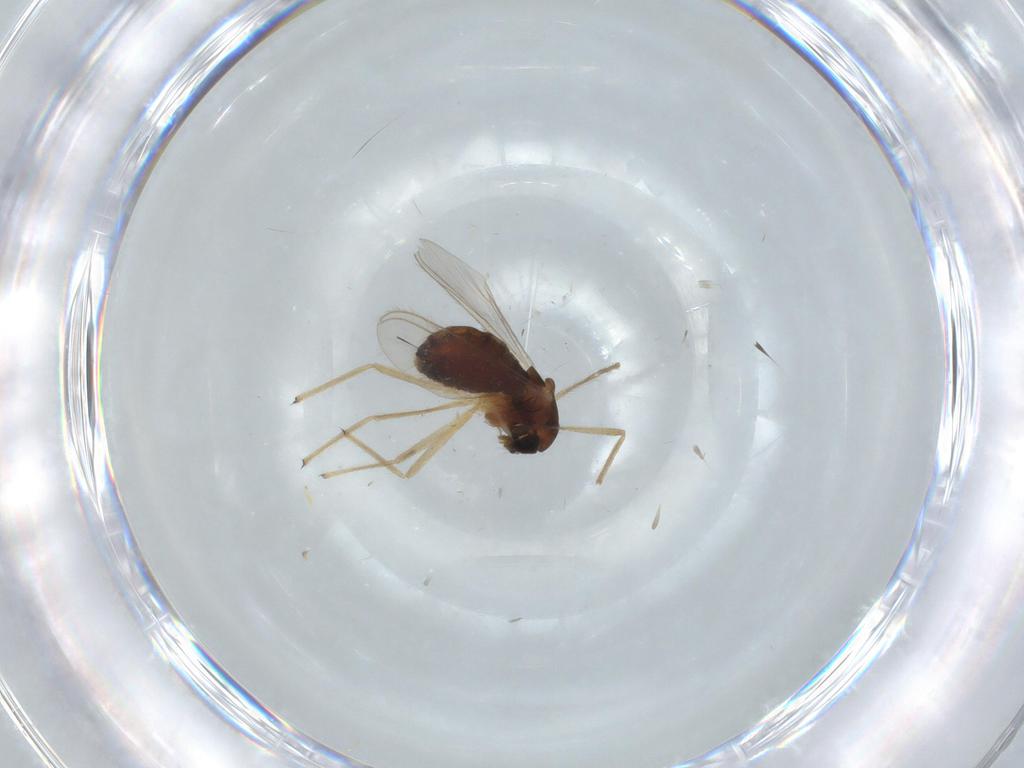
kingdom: Animalia
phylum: Arthropoda
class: Insecta
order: Diptera
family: Chironomidae
